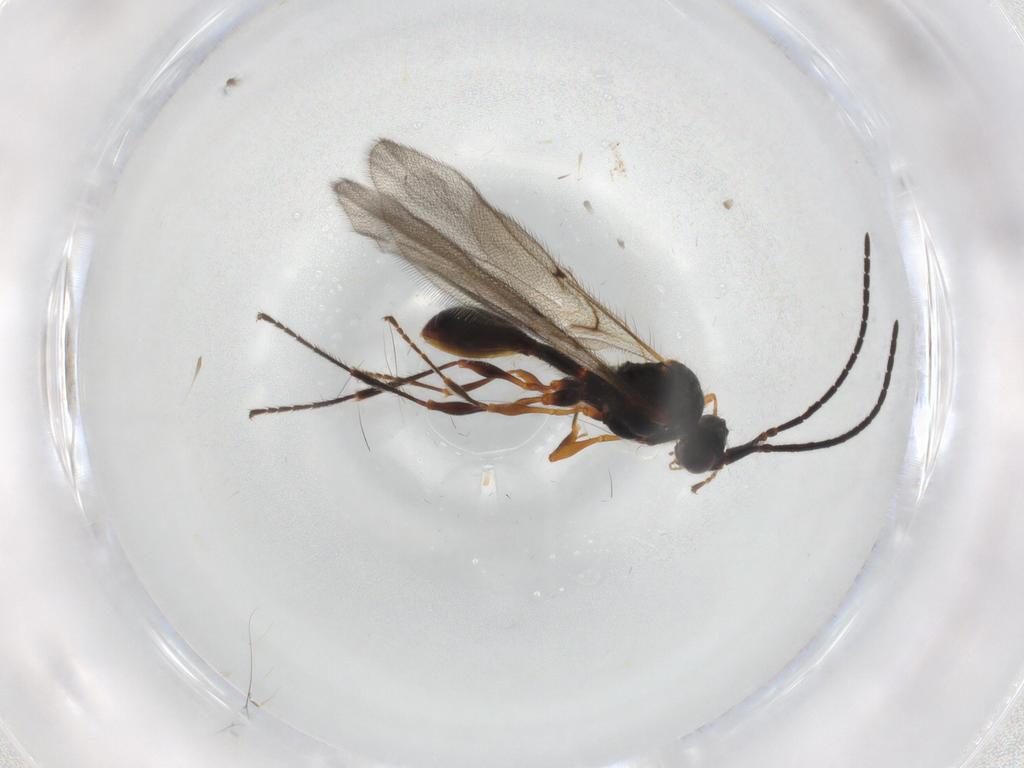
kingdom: Animalia
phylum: Arthropoda
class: Insecta
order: Hymenoptera
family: Diapriidae
